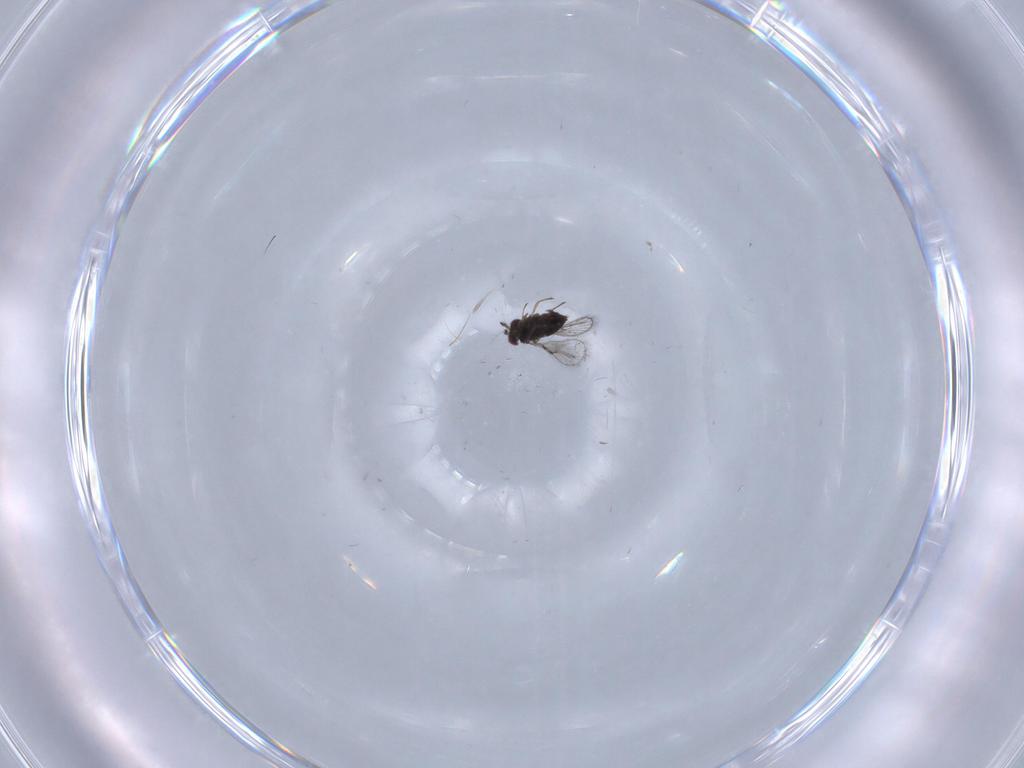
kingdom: Animalia
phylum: Arthropoda
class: Insecta
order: Hymenoptera
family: Trichogrammatidae
